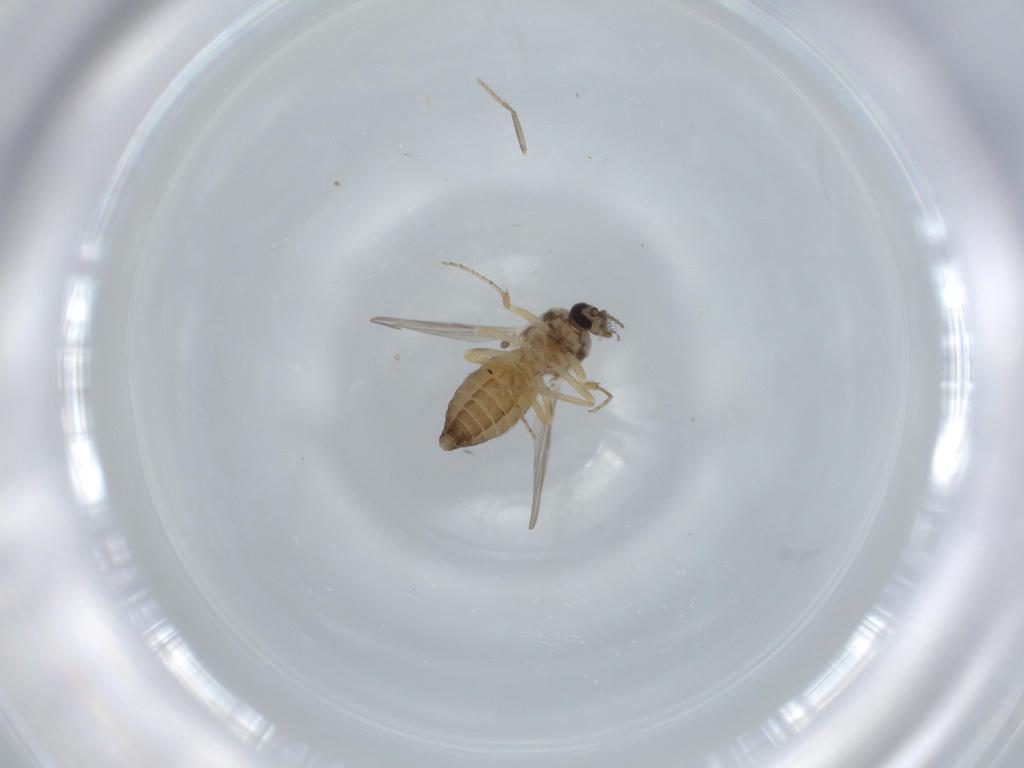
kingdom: Animalia
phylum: Arthropoda
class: Insecta
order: Diptera
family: Ceratopogonidae
